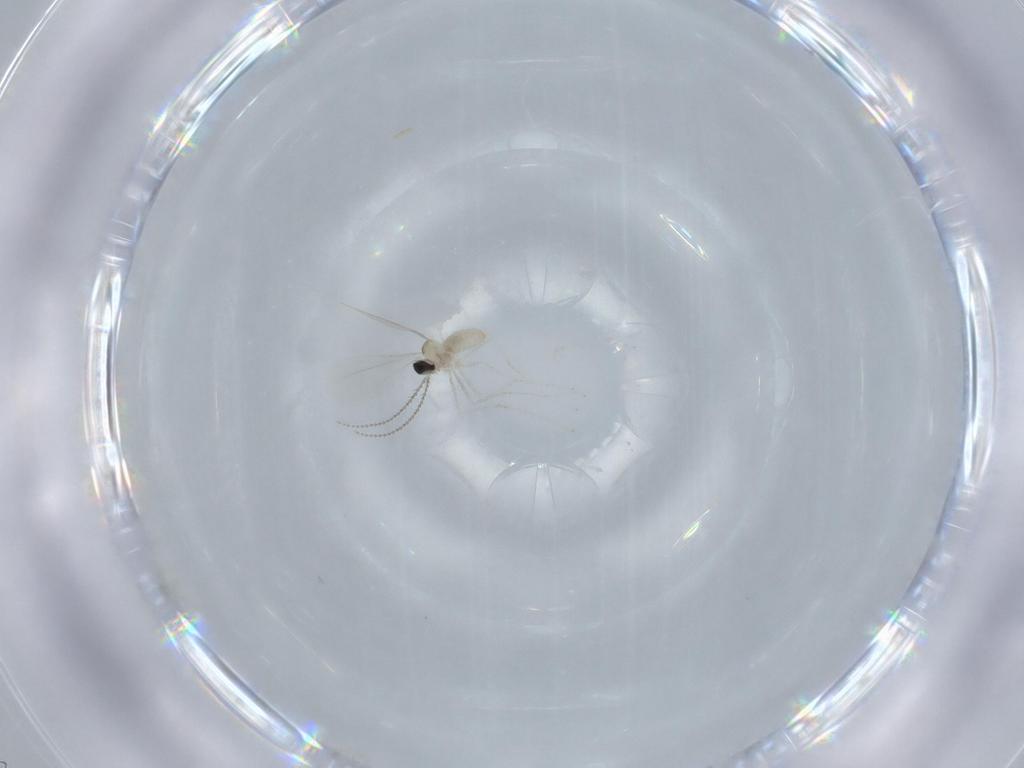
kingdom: Animalia
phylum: Arthropoda
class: Insecta
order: Diptera
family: Cecidomyiidae
